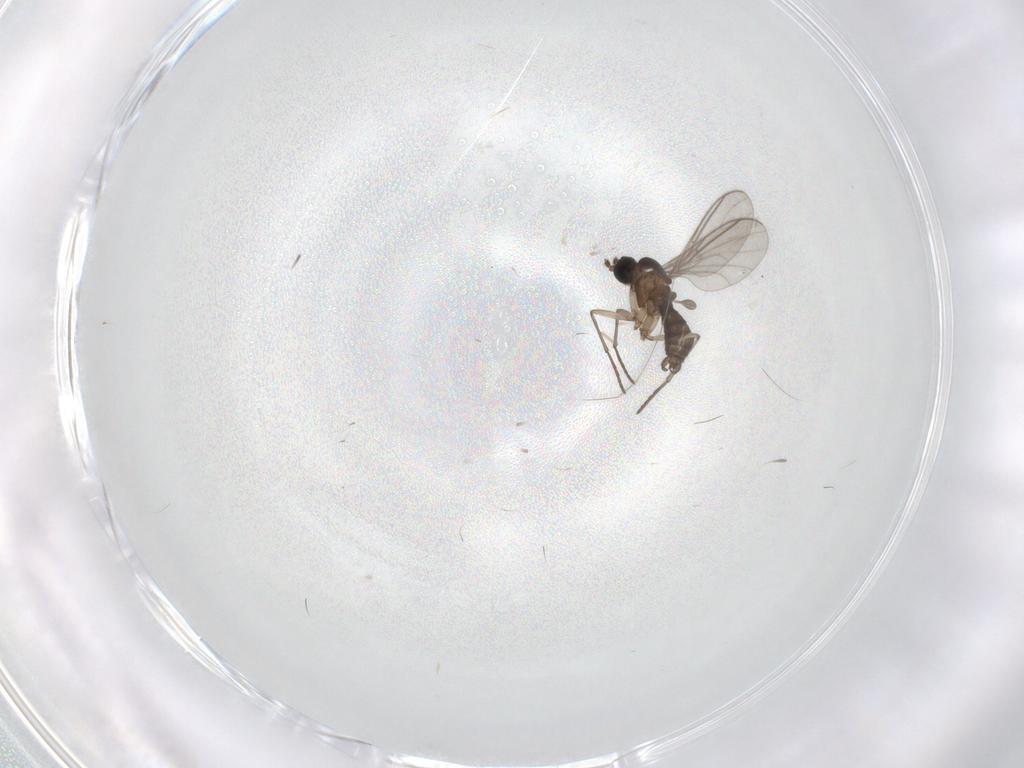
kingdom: Animalia
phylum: Arthropoda
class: Insecta
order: Diptera
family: Sciaridae
